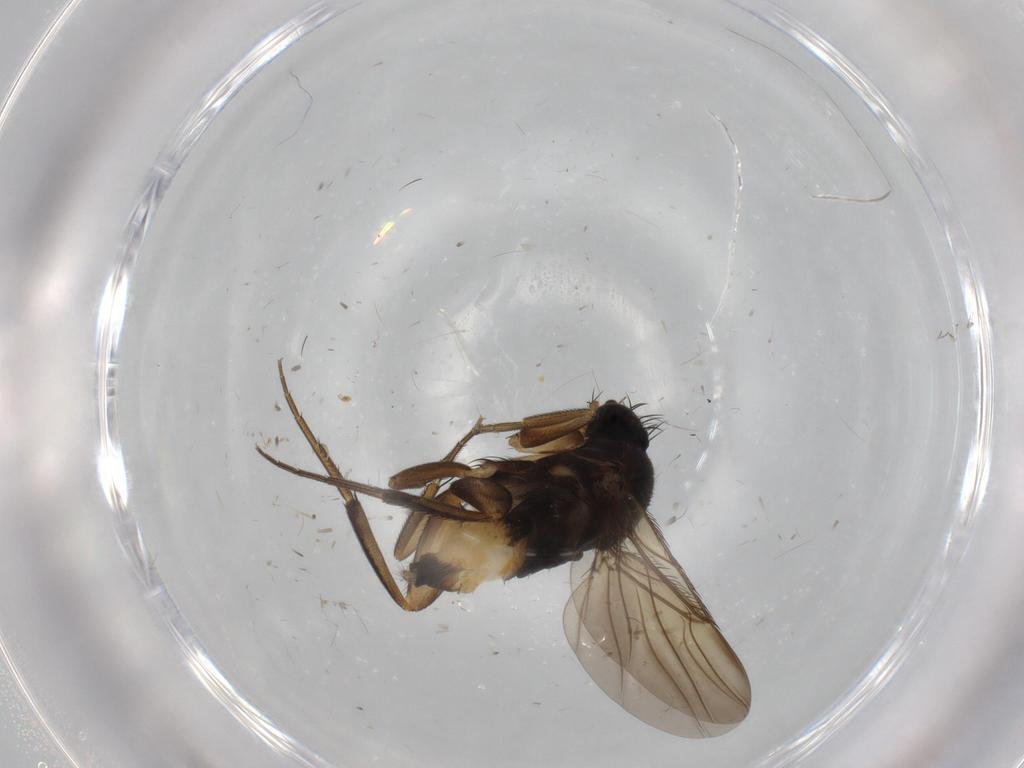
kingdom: Animalia
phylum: Arthropoda
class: Insecta
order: Diptera
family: Phoridae
